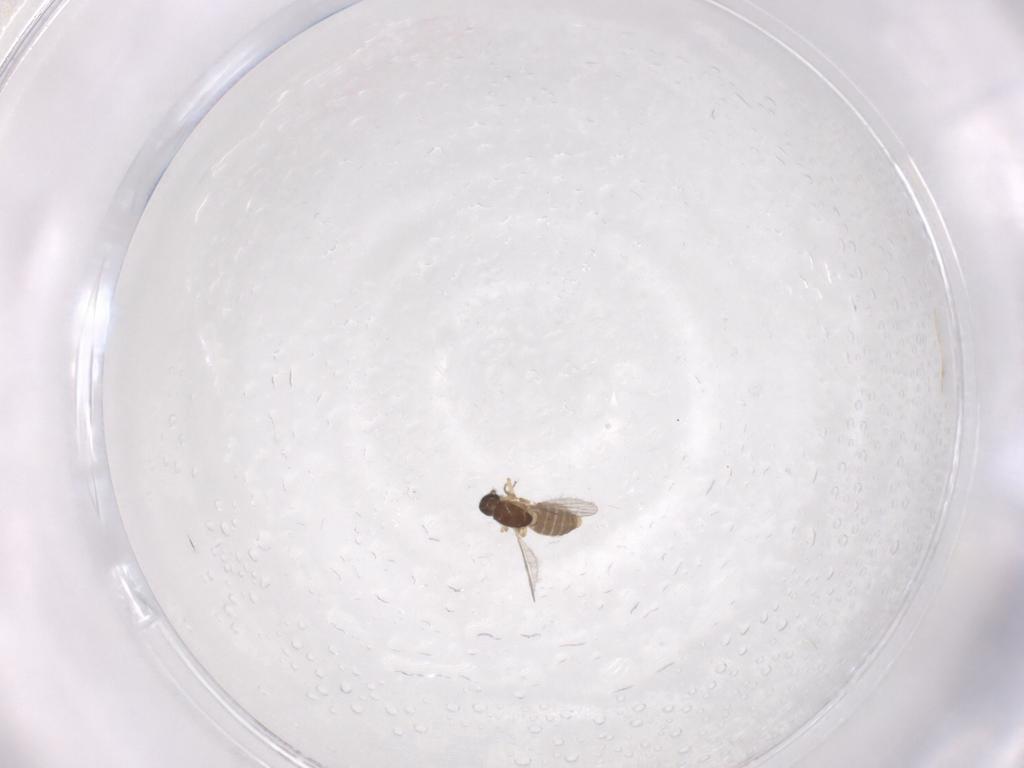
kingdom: Animalia
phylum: Arthropoda
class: Insecta
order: Diptera
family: Ceratopogonidae
